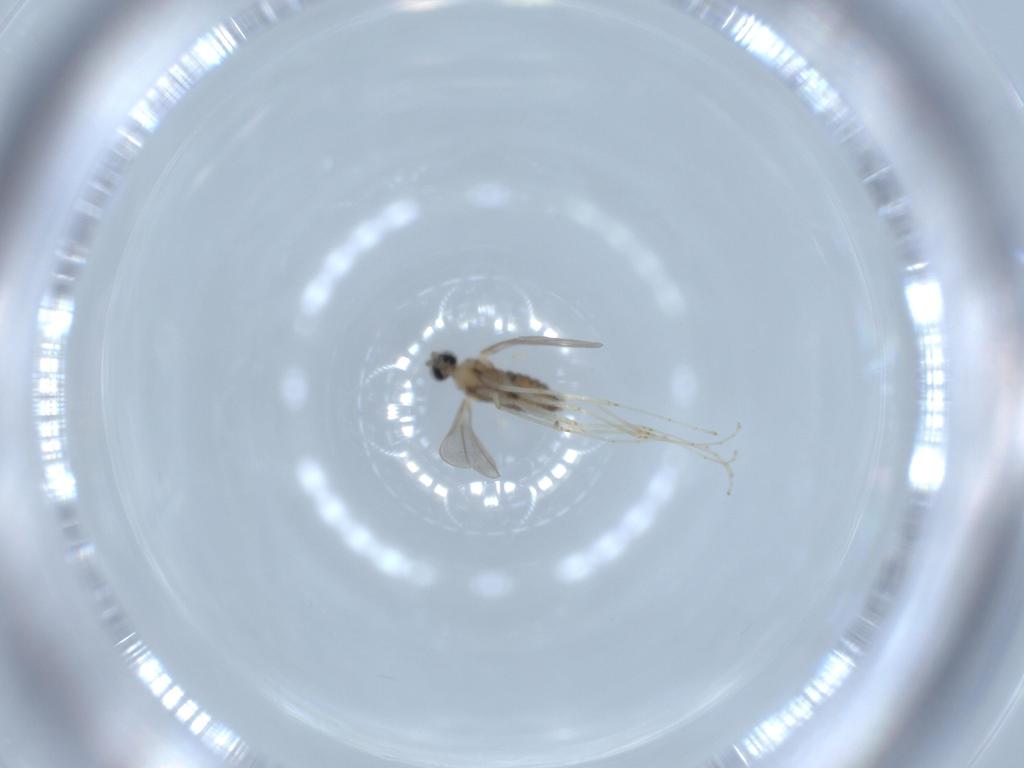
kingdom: Animalia
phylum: Arthropoda
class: Insecta
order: Diptera
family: Cecidomyiidae
